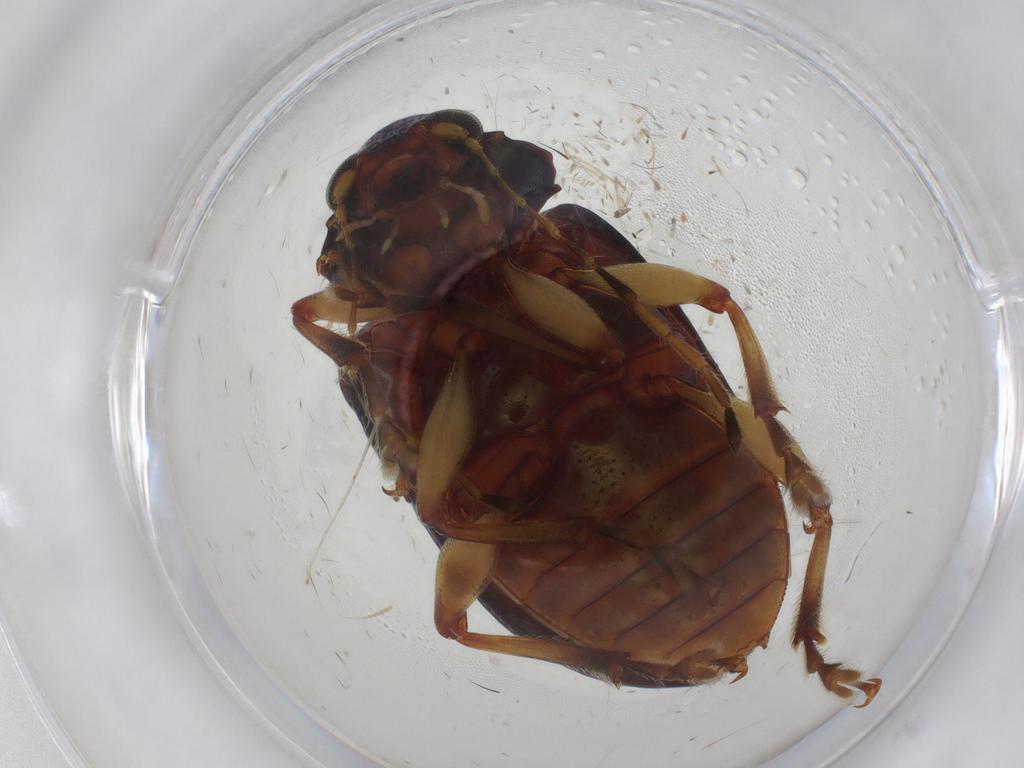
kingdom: Animalia
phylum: Arthropoda
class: Insecta
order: Coleoptera
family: Chrysomelidae
